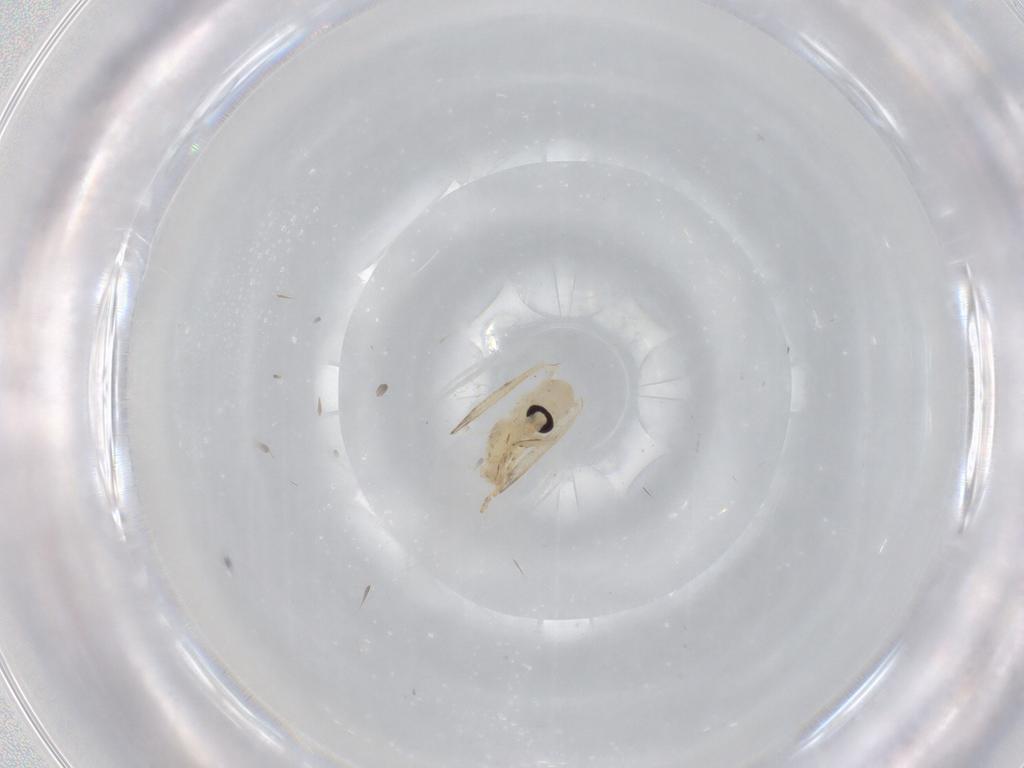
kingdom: Animalia
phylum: Arthropoda
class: Insecta
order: Diptera
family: Psychodidae
